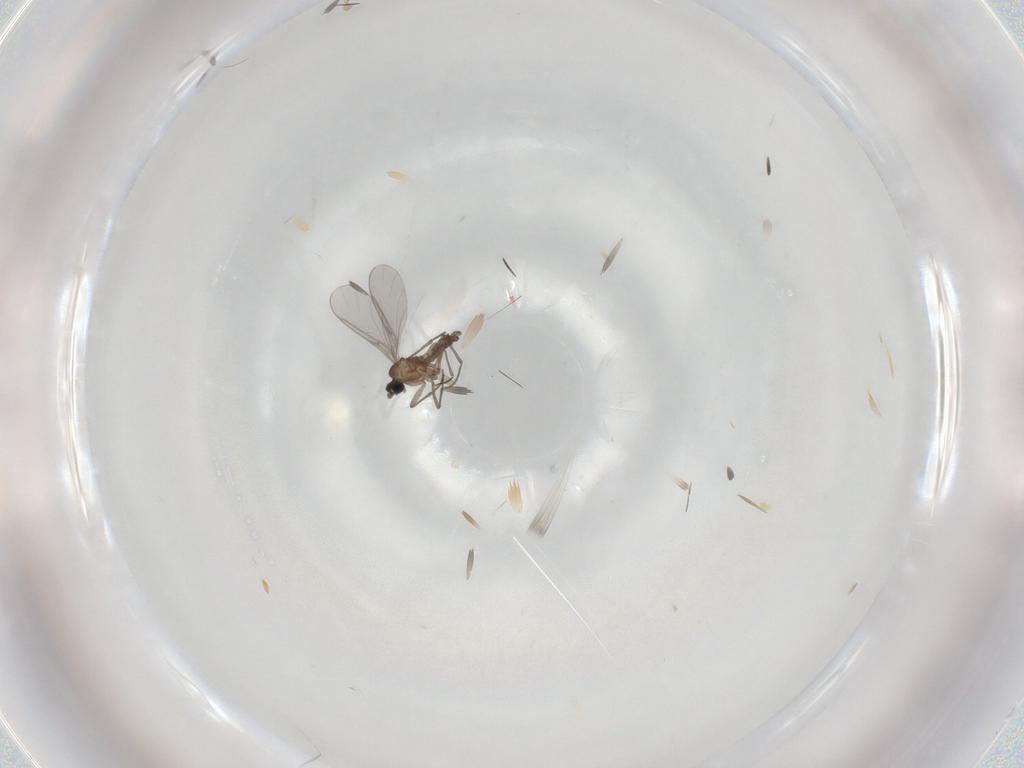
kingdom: Animalia
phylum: Arthropoda
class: Insecta
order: Diptera
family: Sciaridae
